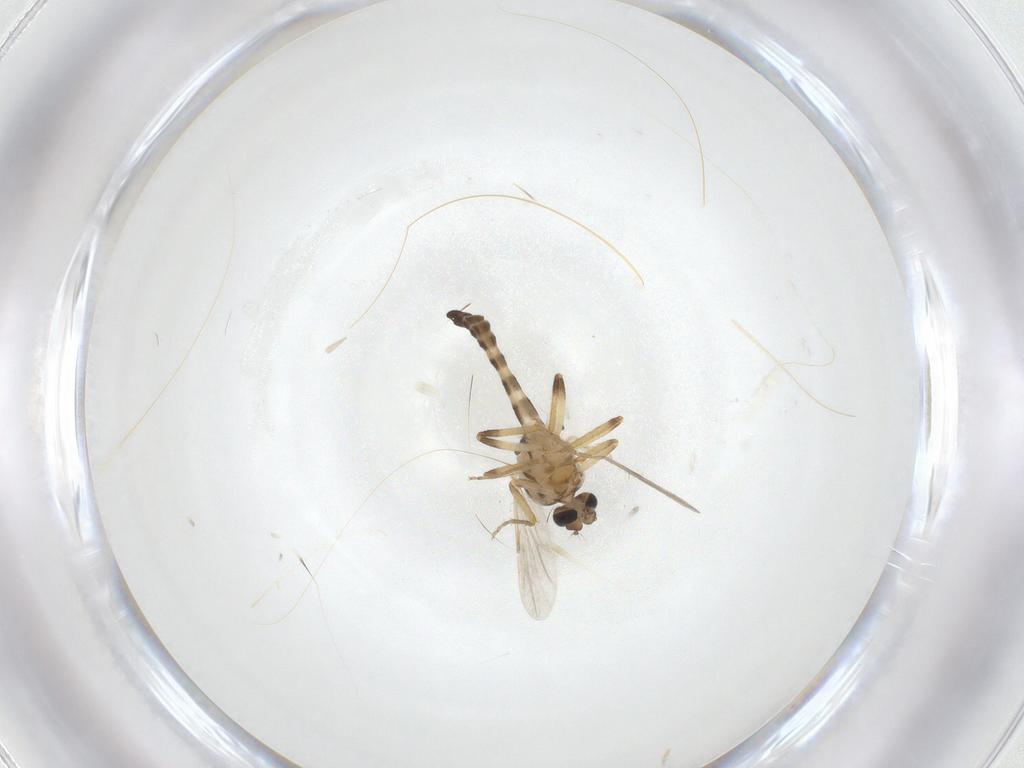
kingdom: Animalia
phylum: Arthropoda
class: Insecta
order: Diptera
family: Ceratopogonidae
